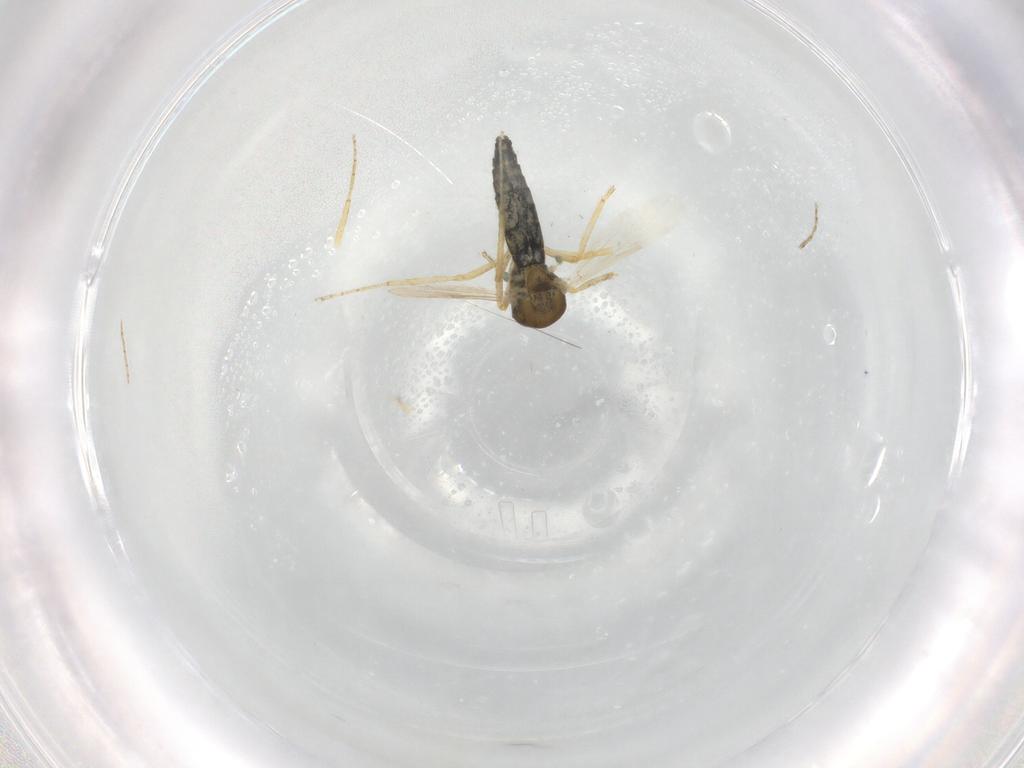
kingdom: Animalia
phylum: Arthropoda
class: Insecta
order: Diptera
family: Ceratopogonidae
